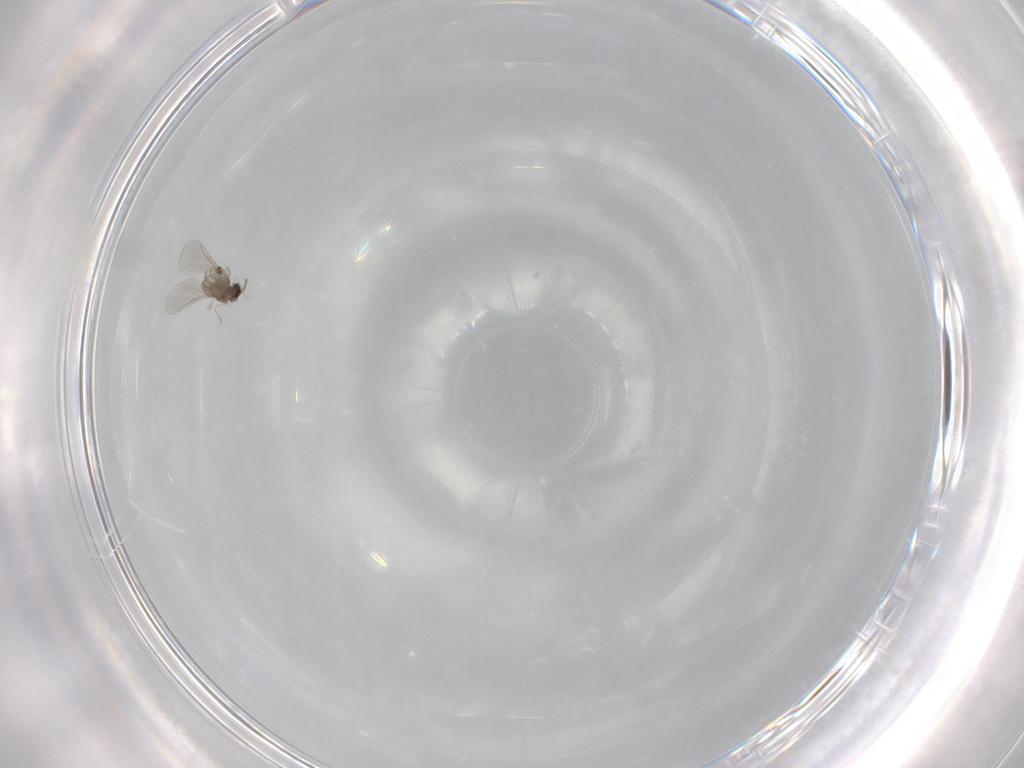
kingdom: Animalia
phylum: Arthropoda
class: Insecta
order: Diptera
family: Cecidomyiidae
